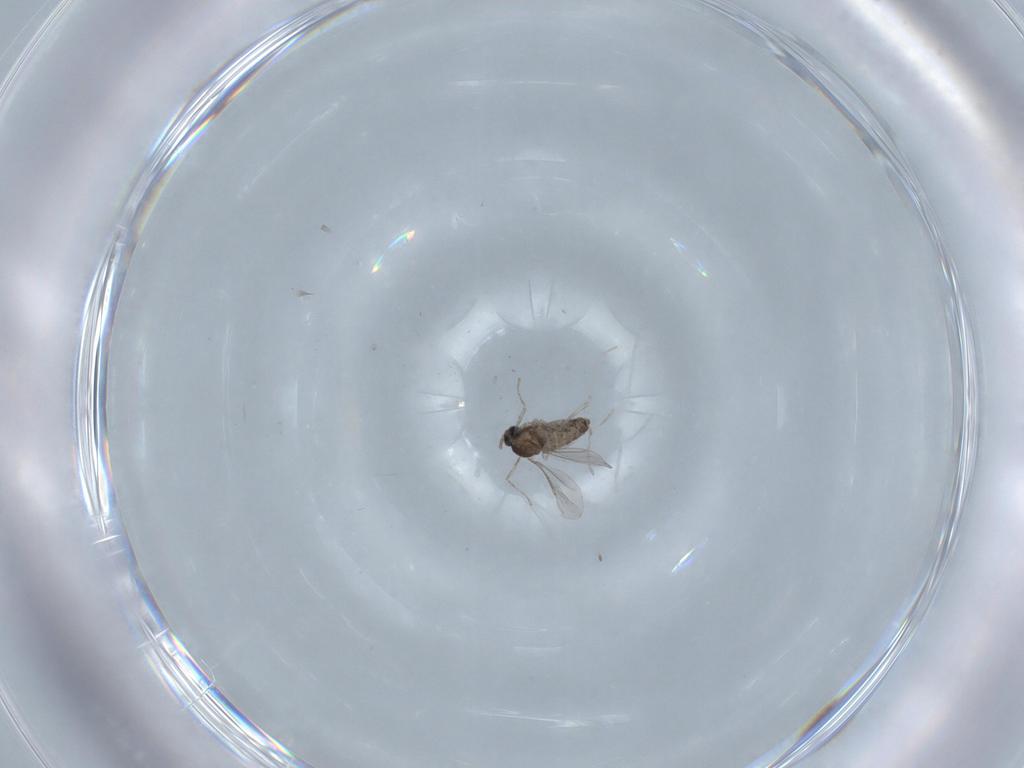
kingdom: Animalia
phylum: Arthropoda
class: Insecta
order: Diptera
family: Cecidomyiidae
